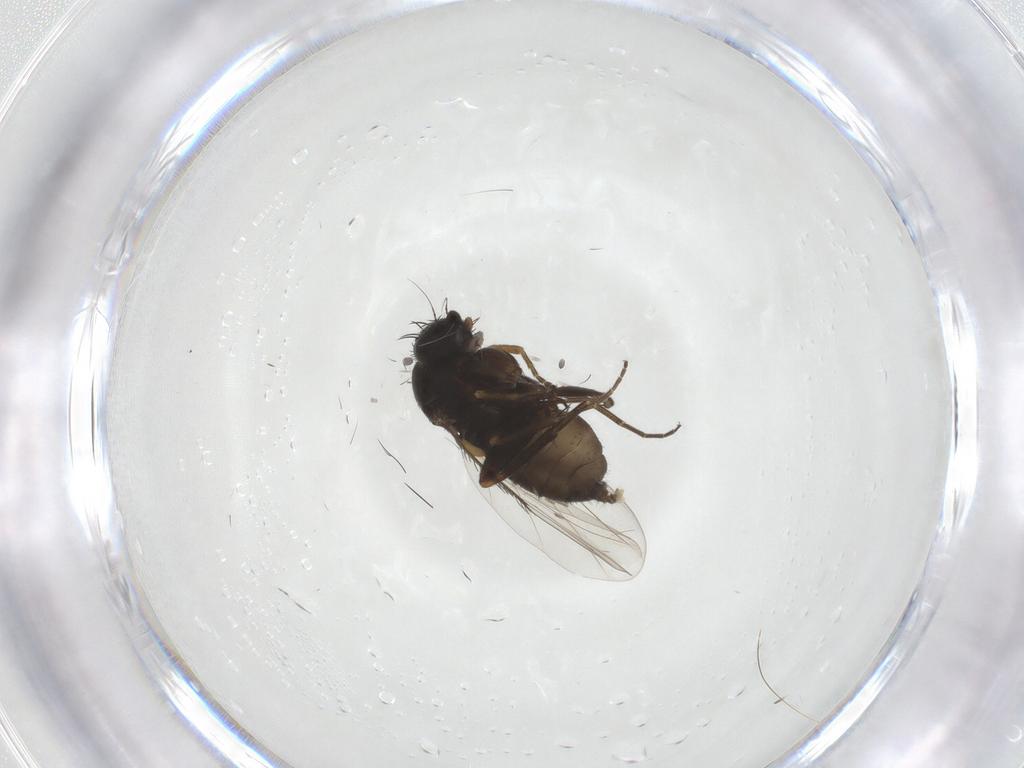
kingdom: Animalia
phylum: Arthropoda
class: Insecta
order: Diptera
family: Phoridae
